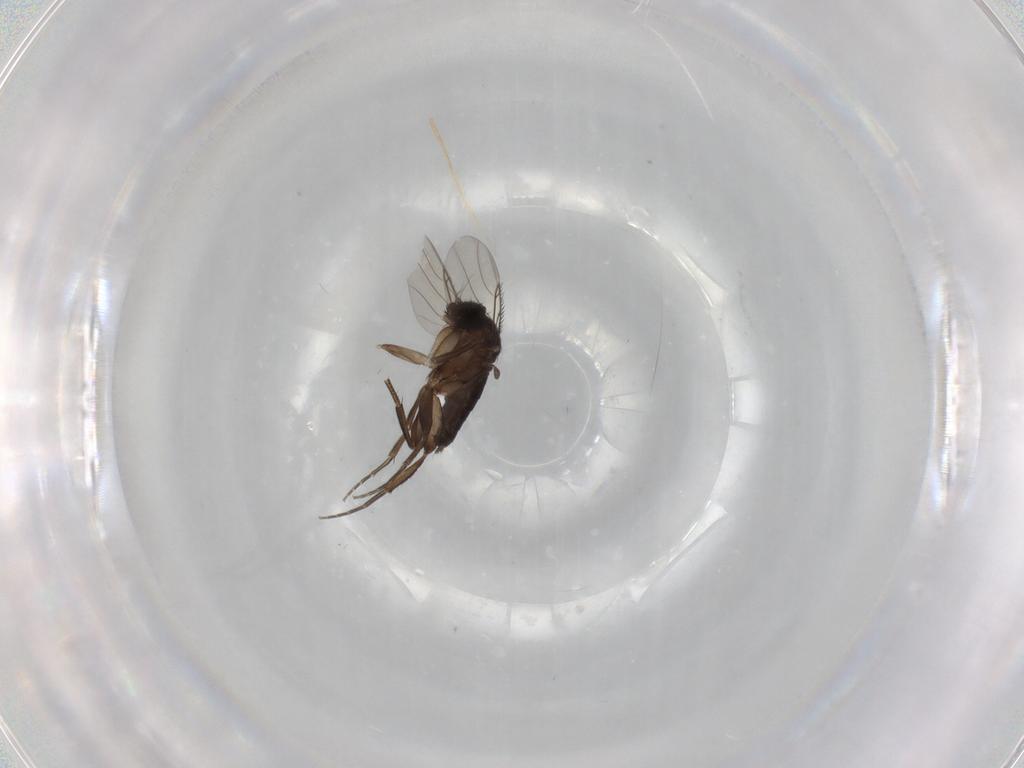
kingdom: Animalia
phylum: Arthropoda
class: Insecta
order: Diptera
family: Phoridae
